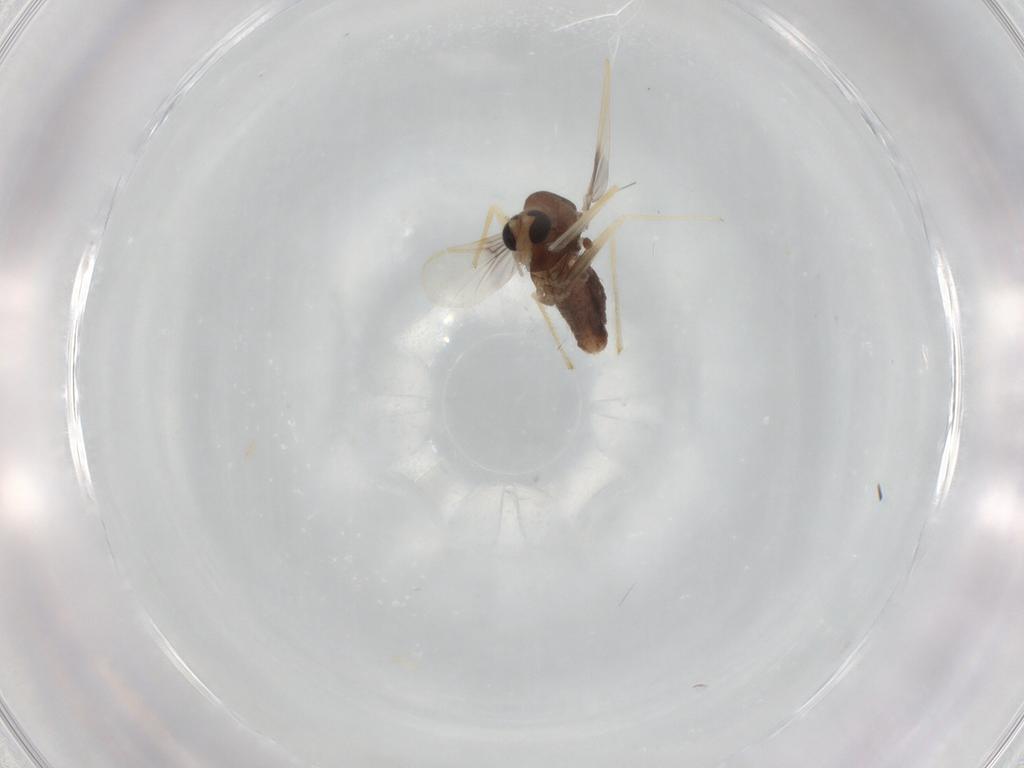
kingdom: Animalia
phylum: Arthropoda
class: Insecta
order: Diptera
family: Chironomidae
